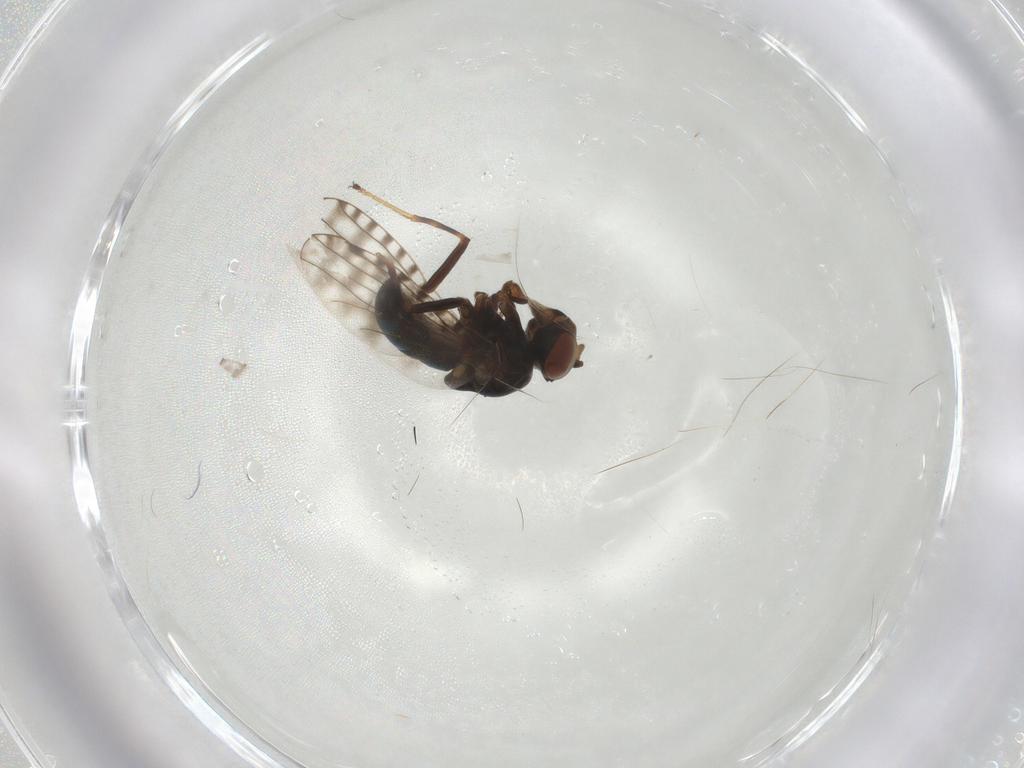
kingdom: Animalia
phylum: Arthropoda
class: Insecta
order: Diptera
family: Ephydridae
